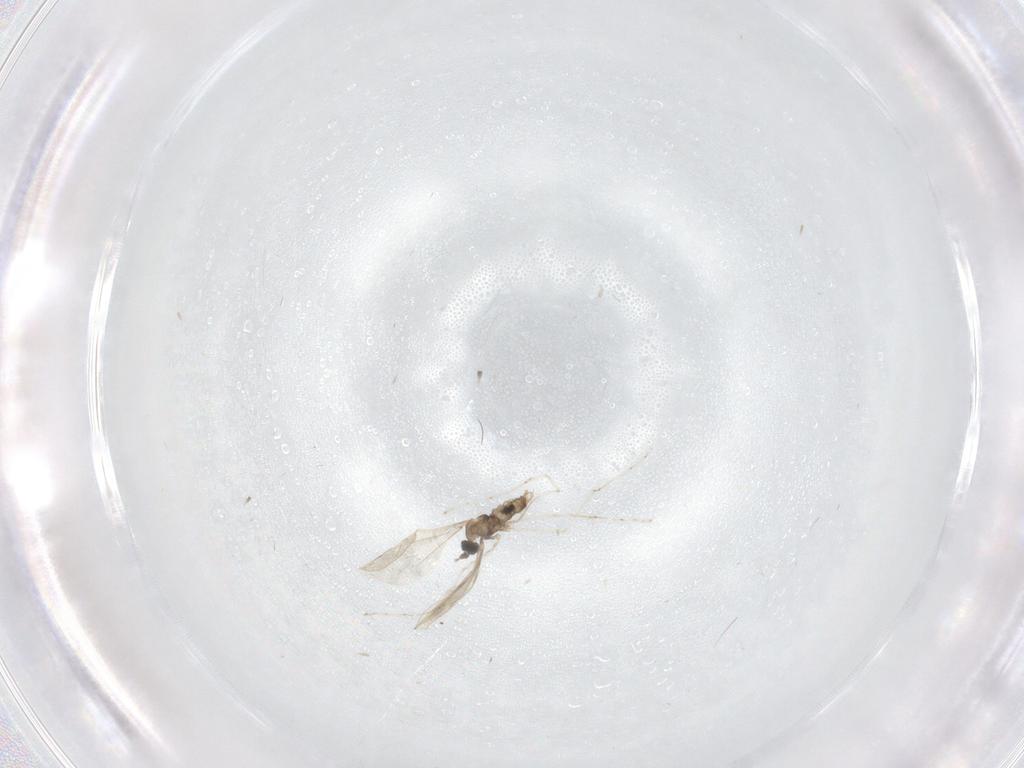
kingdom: Animalia
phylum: Arthropoda
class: Insecta
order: Diptera
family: Cecidomyiidae
